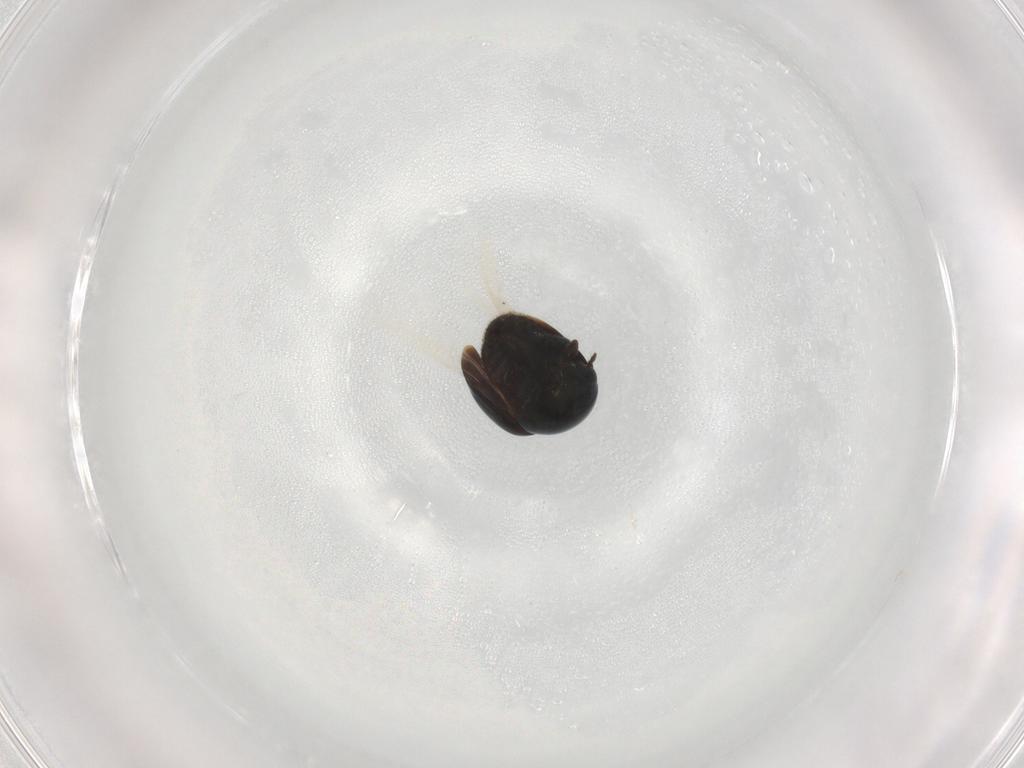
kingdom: Animalia
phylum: Arthropoda
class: Insecta
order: Coleoptera
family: Cybocephalidae
